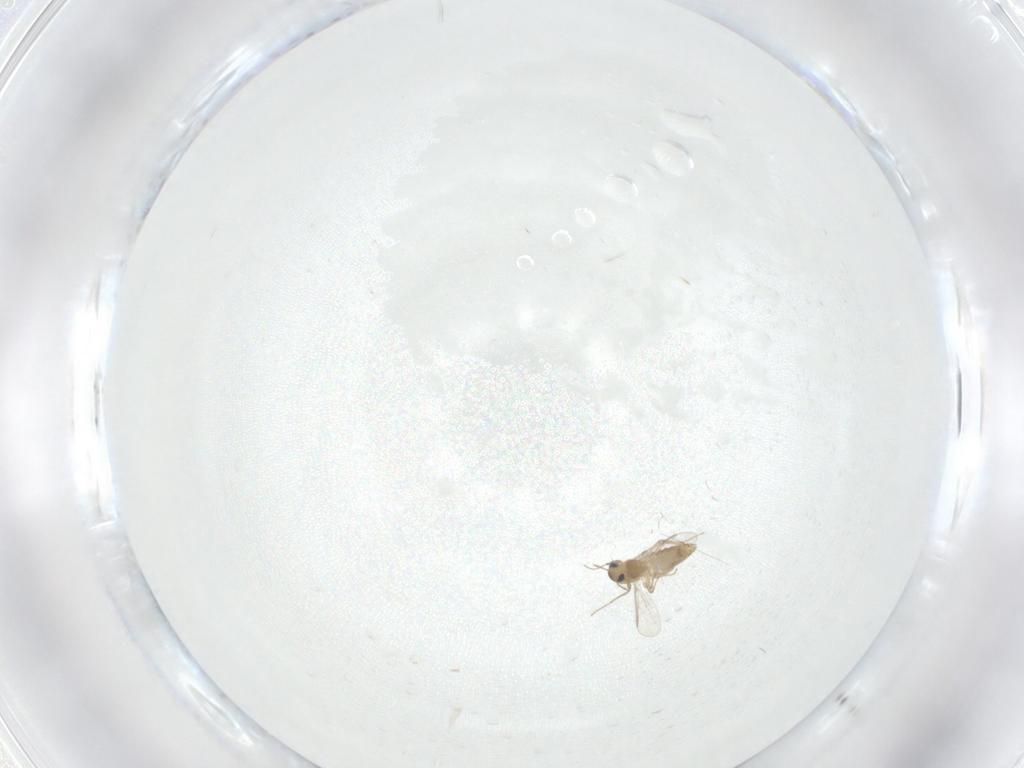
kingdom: Animalia
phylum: Arthropoda
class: Insecta
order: Diptera
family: Chironomidae
